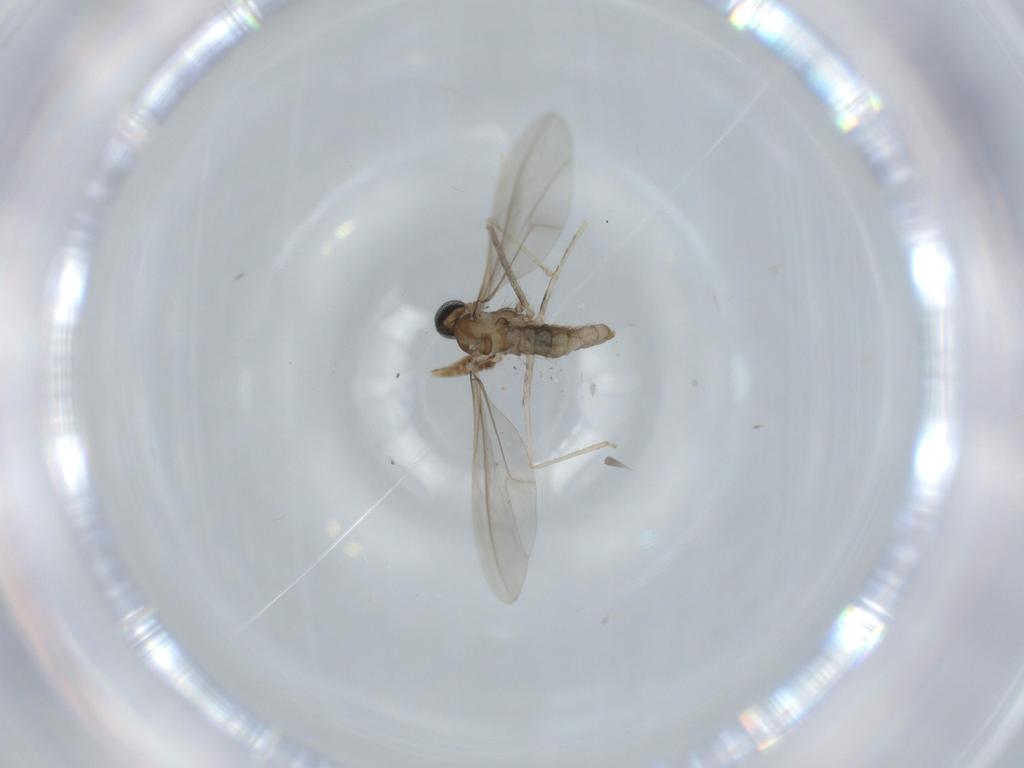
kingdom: Animalia
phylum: Arthropoda
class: Insecta
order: Diptera
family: Cecidomyiidae
